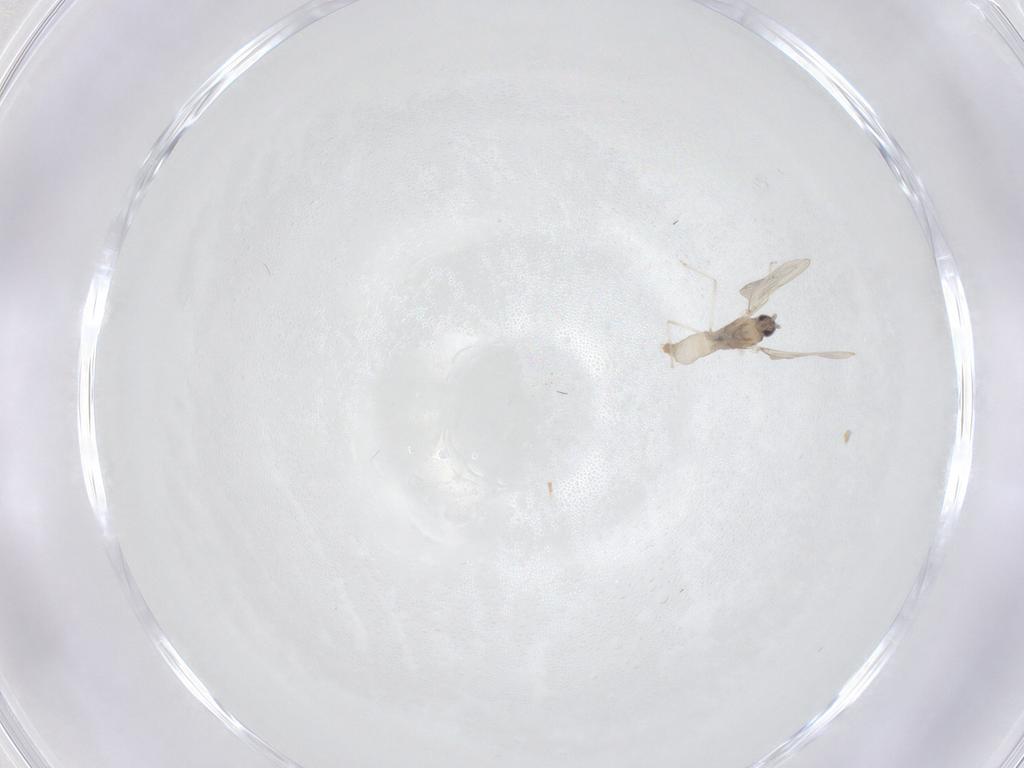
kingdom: Animalia
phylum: Arthropoda
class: Insecta
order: Diptera
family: Cecidomyiidae
